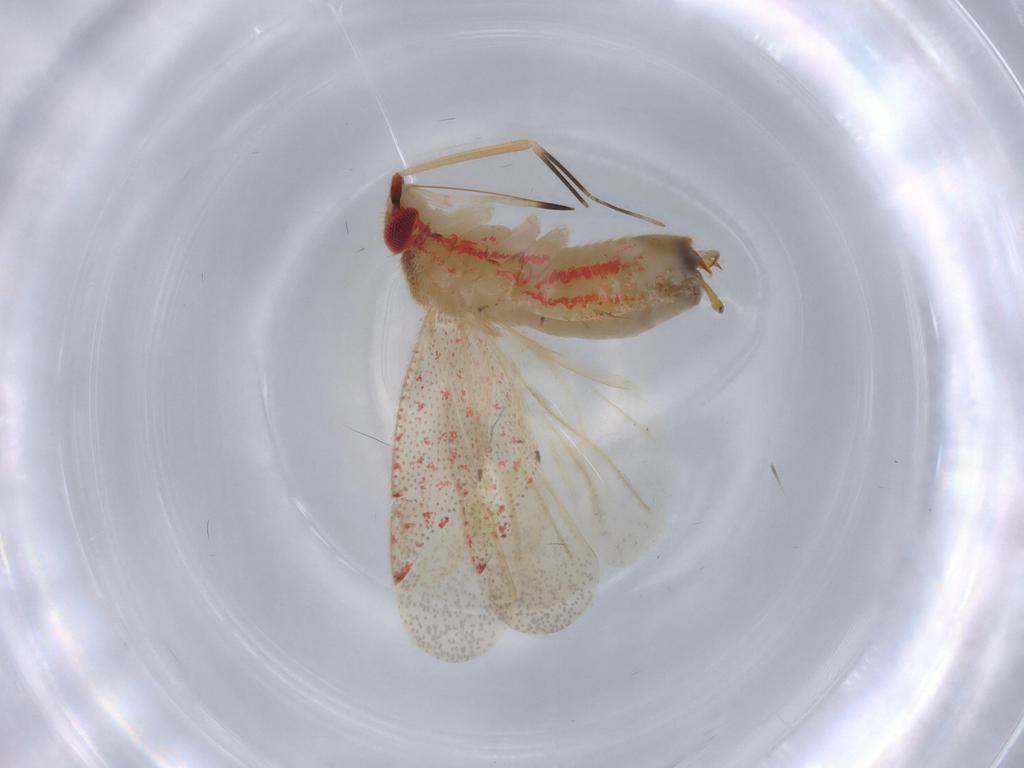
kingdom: Animalia
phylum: Arthropoda
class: Insecta
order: Hemiptera
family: Miridae
